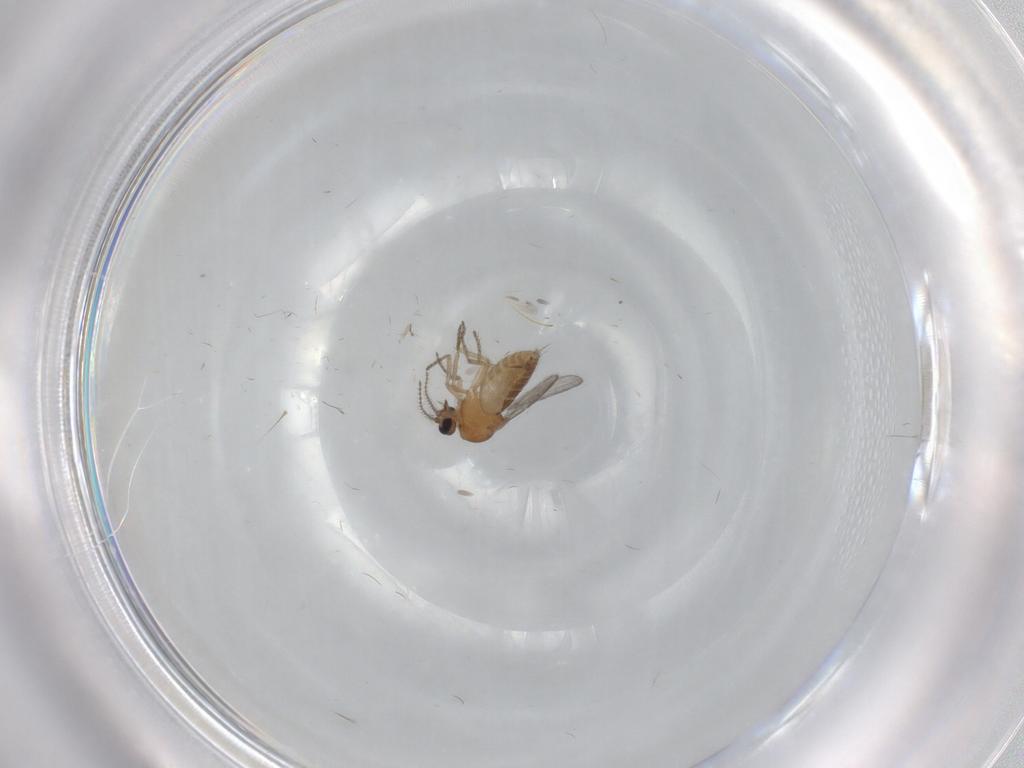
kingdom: Animalia
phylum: Arthropoda
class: Insecta
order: Diptera
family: Ceratopogonidae
